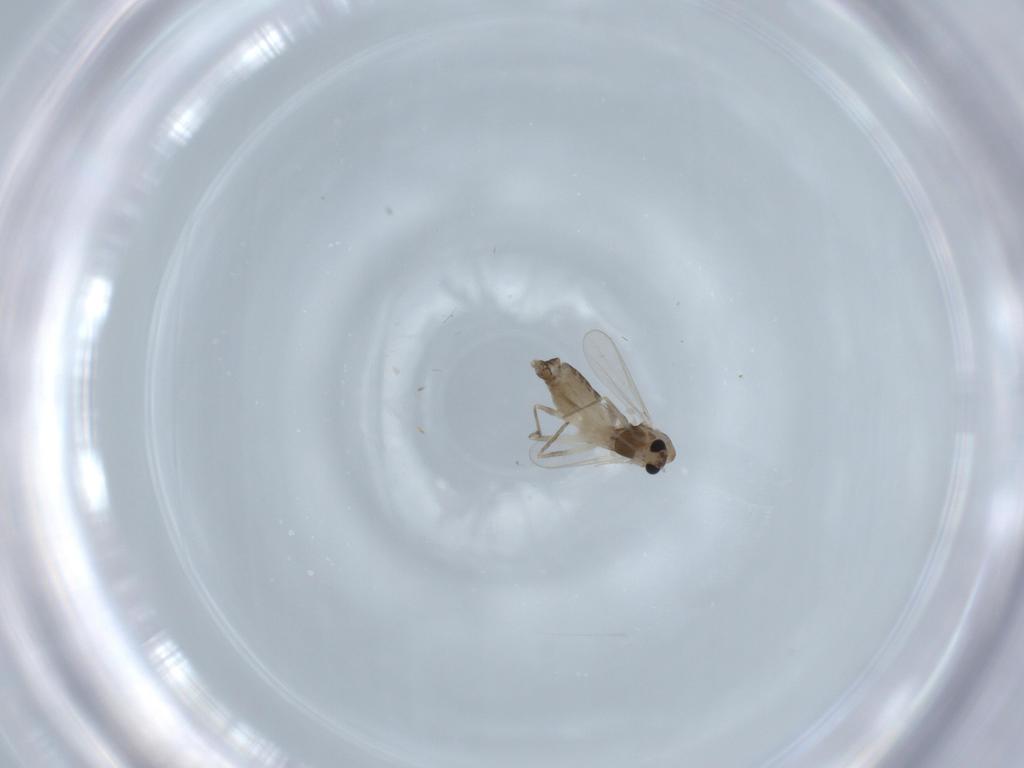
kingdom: Animalia
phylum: Arthropoda
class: Insecta
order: Diptera
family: Chironomidae
